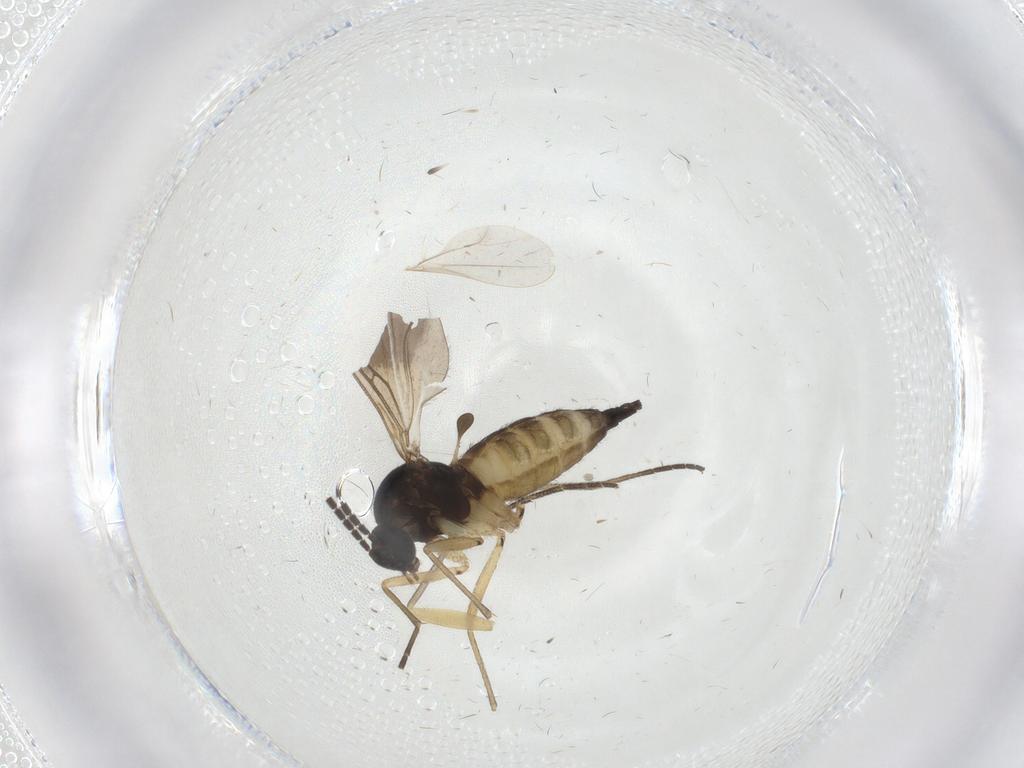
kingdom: Animalia
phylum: Arthropoda
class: Insecta
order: Diptera
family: Sciaridae
